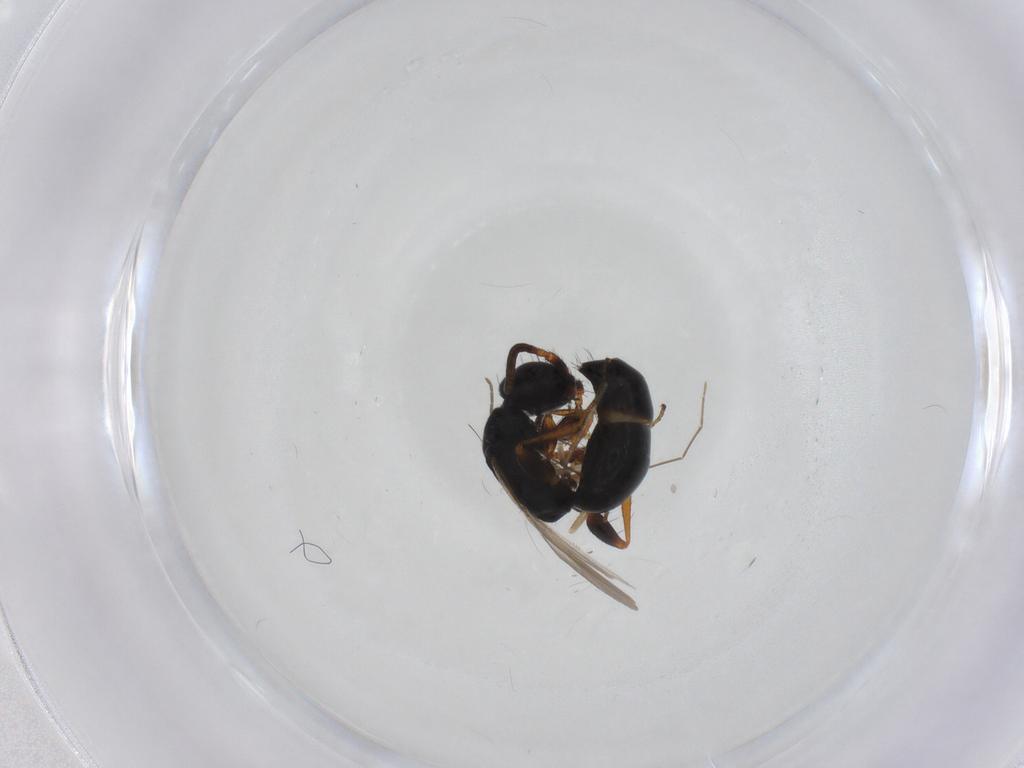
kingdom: Animalia
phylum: Arthropoda
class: Insecta
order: Hymenoptera
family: Bethylidae
